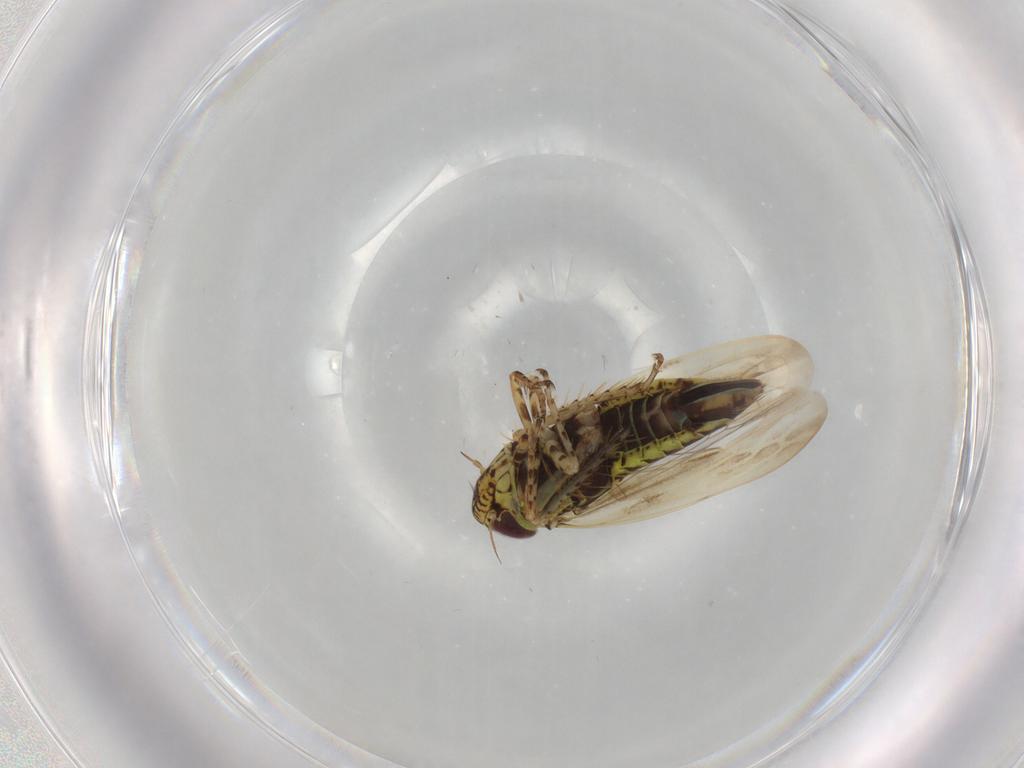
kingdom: Animalia
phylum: Arthropoda
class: Insecta
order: Hemiptera
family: Cicadellidae
